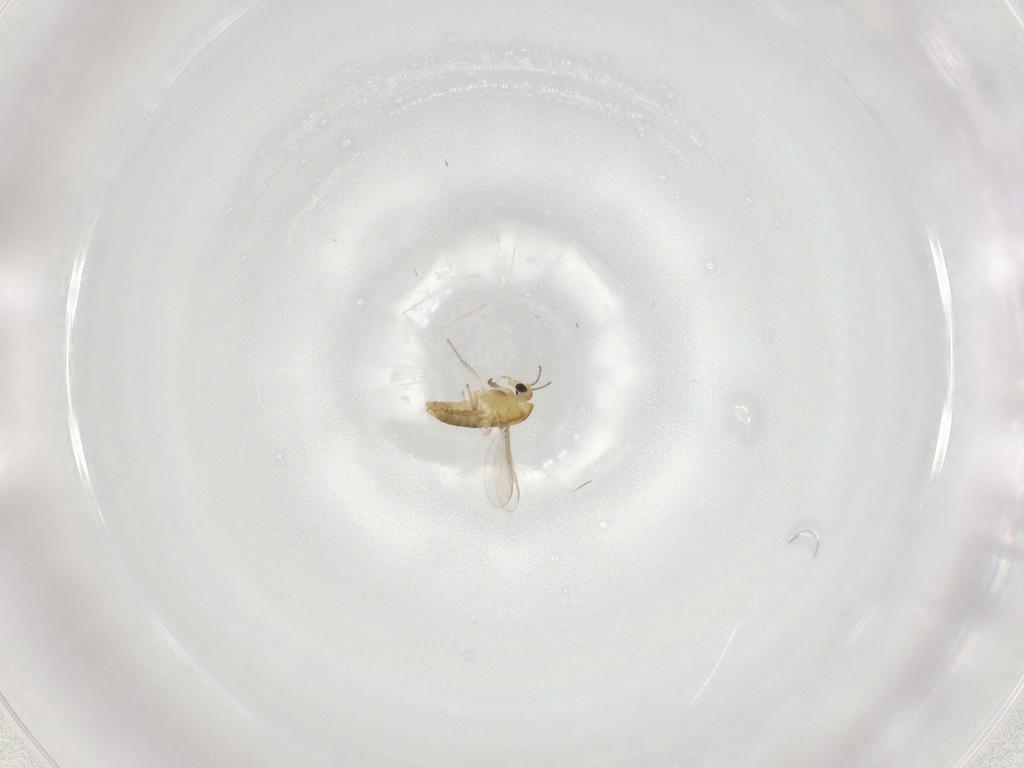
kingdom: Animalia
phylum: Arthropoda
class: Insecta
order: Diptera
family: Chironomidae
